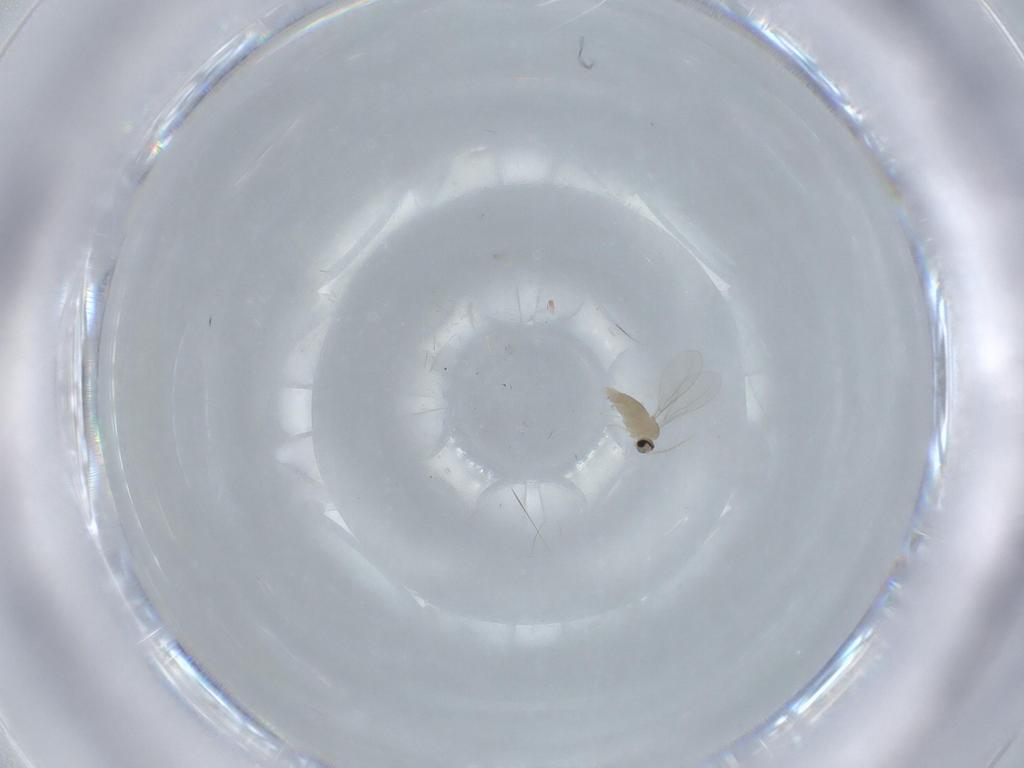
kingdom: Animalia
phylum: Arthropoda
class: Insecta
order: Diptera
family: Cecidomyiidae
